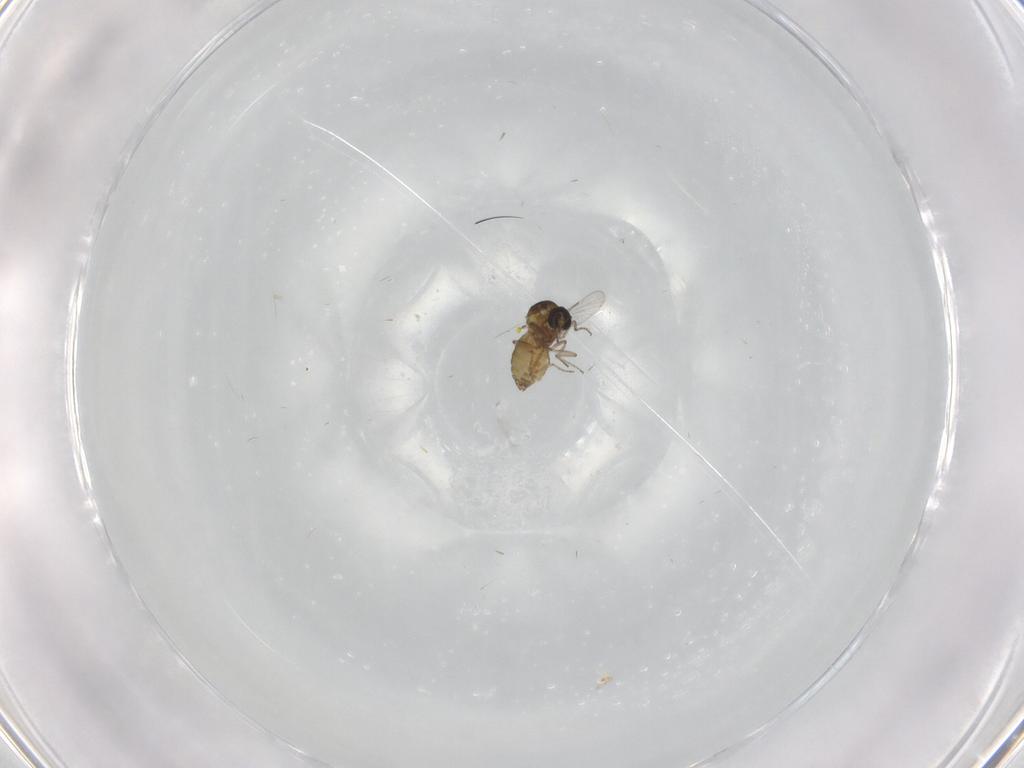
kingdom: Animalia
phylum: Arthropoda
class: Insecta
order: Diptera
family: Ceratopogonidae
